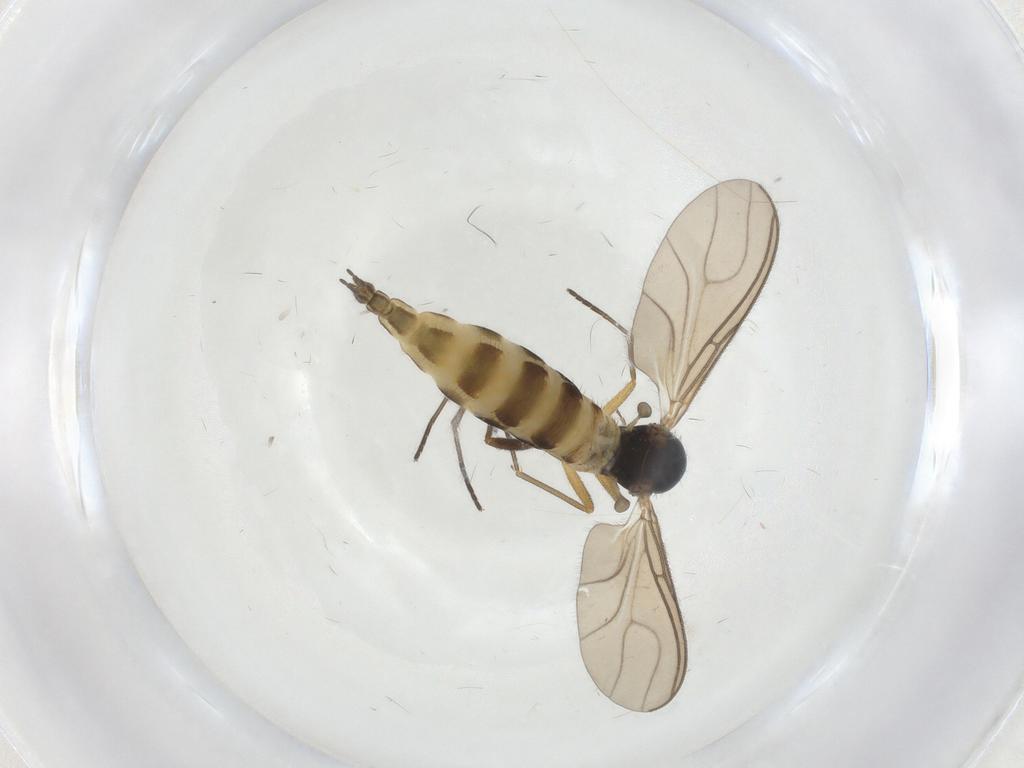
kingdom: Animalia
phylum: Arthropoda
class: Insecta
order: Diptera
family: Sciaridae
